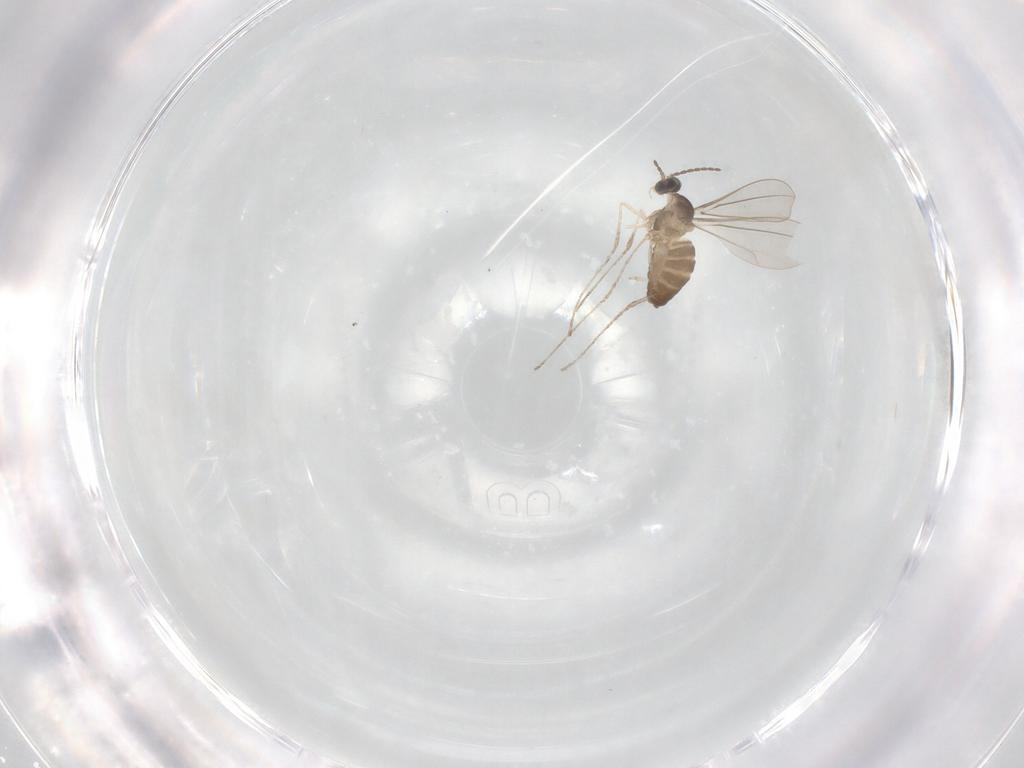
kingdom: Animalia
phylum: Arthropoda
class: Insecta
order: Diptera
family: Cecidomyiidae
